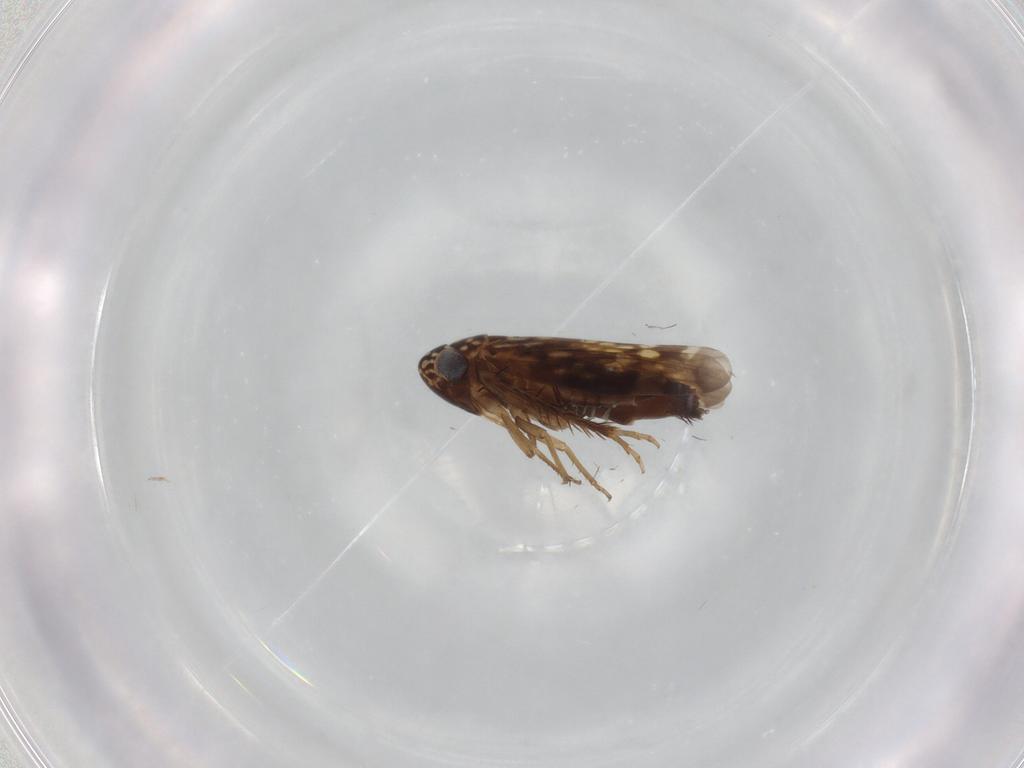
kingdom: Animalia
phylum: Arthropoda
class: Insecta
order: Hemiptera
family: Cicadellidae
